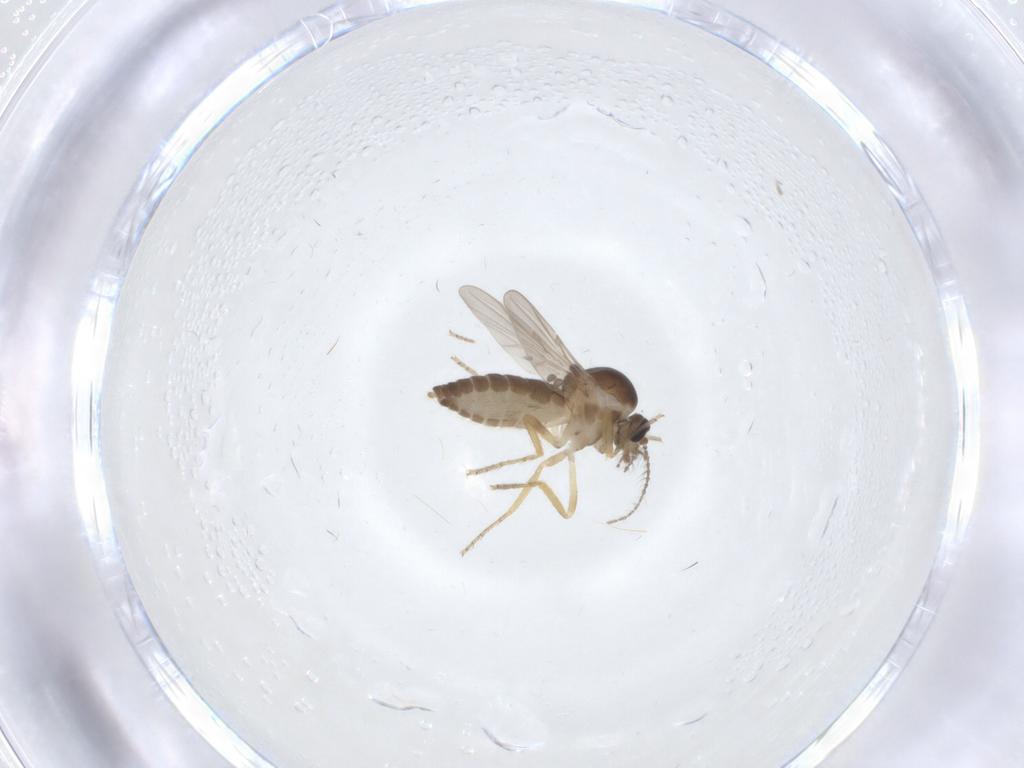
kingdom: Animalia
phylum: Arthropoda
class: Insecta
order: Diptera
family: Ceratopogonidae
